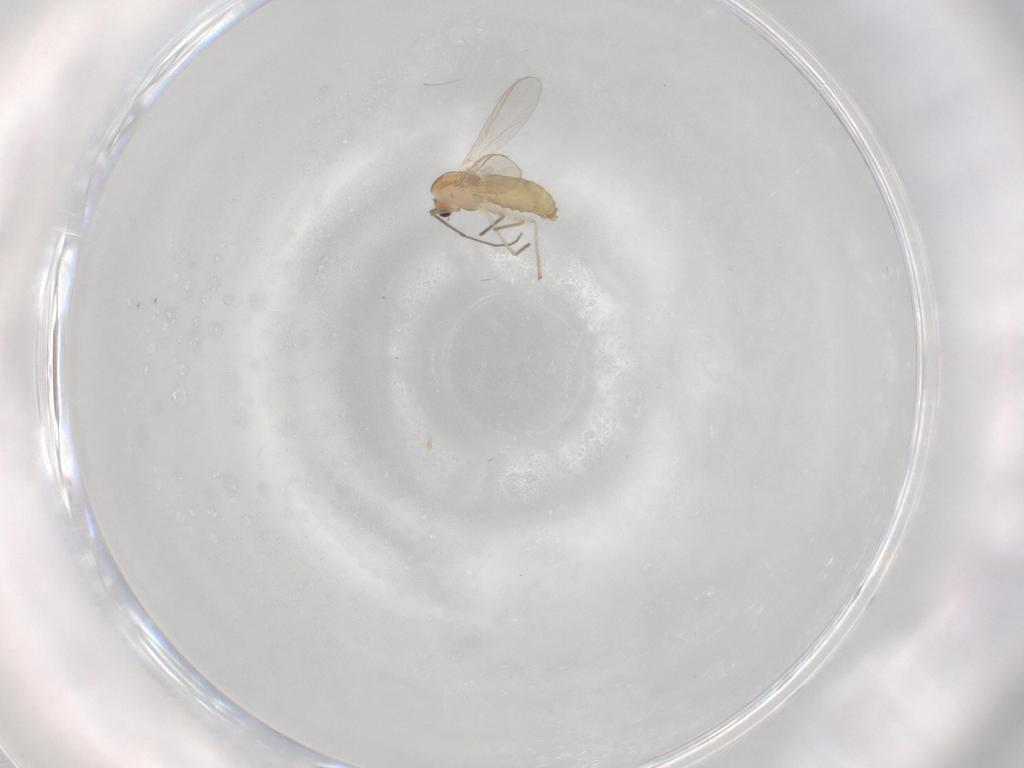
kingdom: Animalia
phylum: Arthropoda
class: Insecta
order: Diptera
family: Chironomidae
